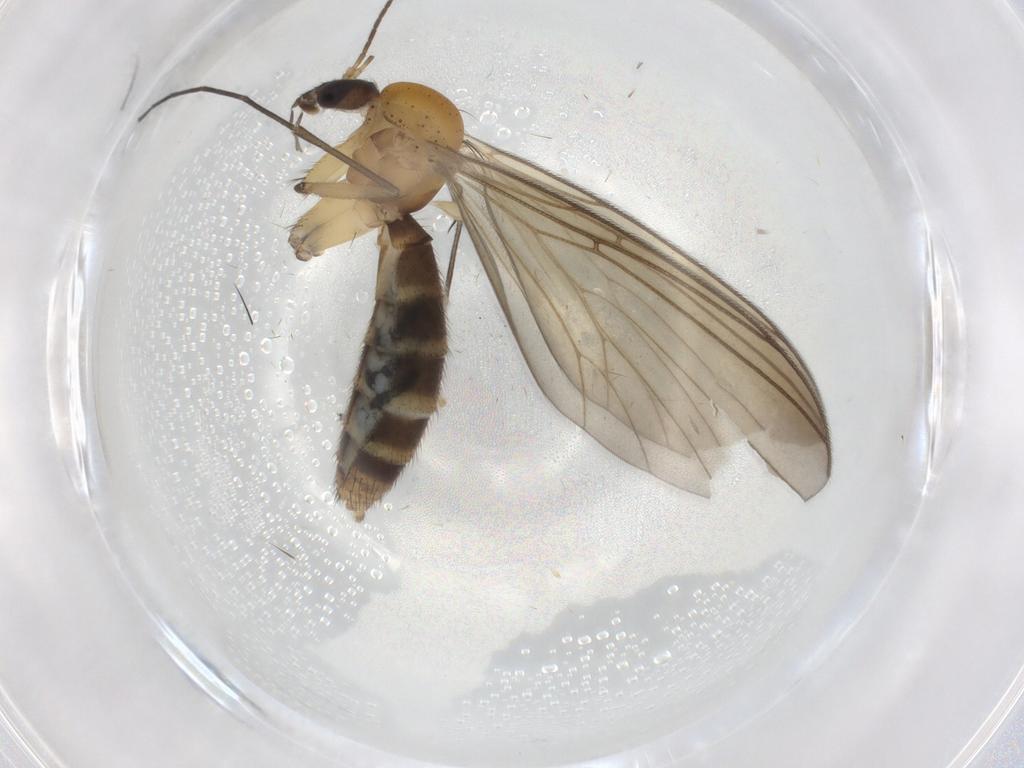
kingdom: Animalia
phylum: Arthropoda
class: Insecta
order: Diptera
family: Mycetophilidae
